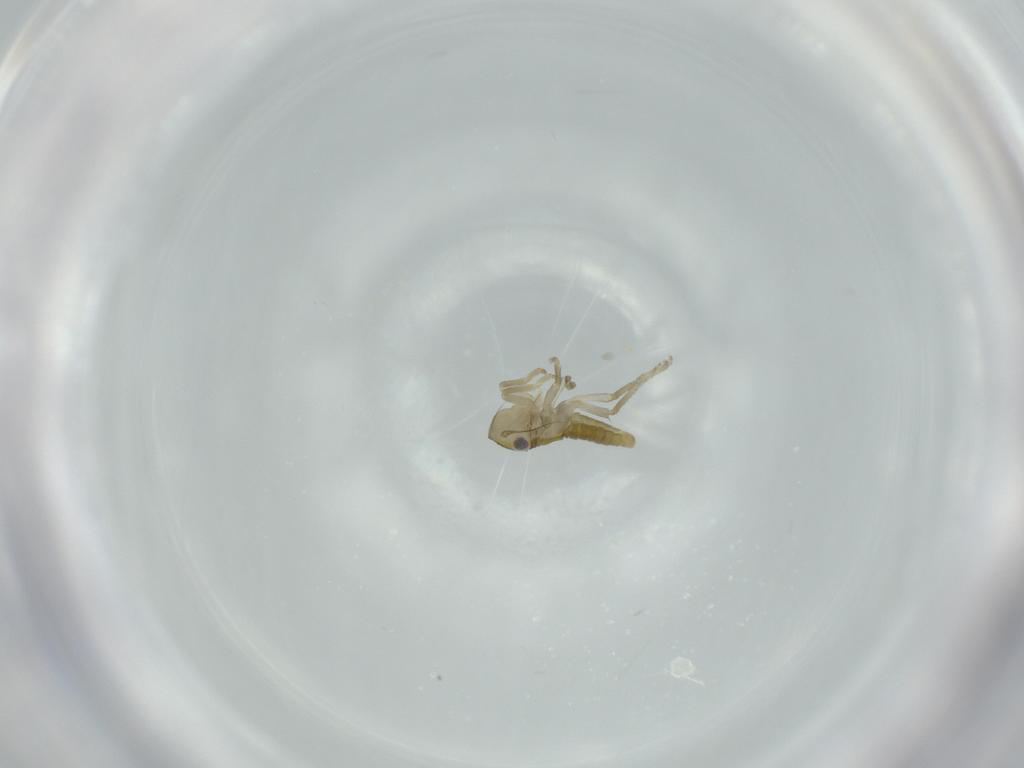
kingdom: Animalia
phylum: Arthropoda
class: Insecta
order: Hemiptera
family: Cicadellidae
